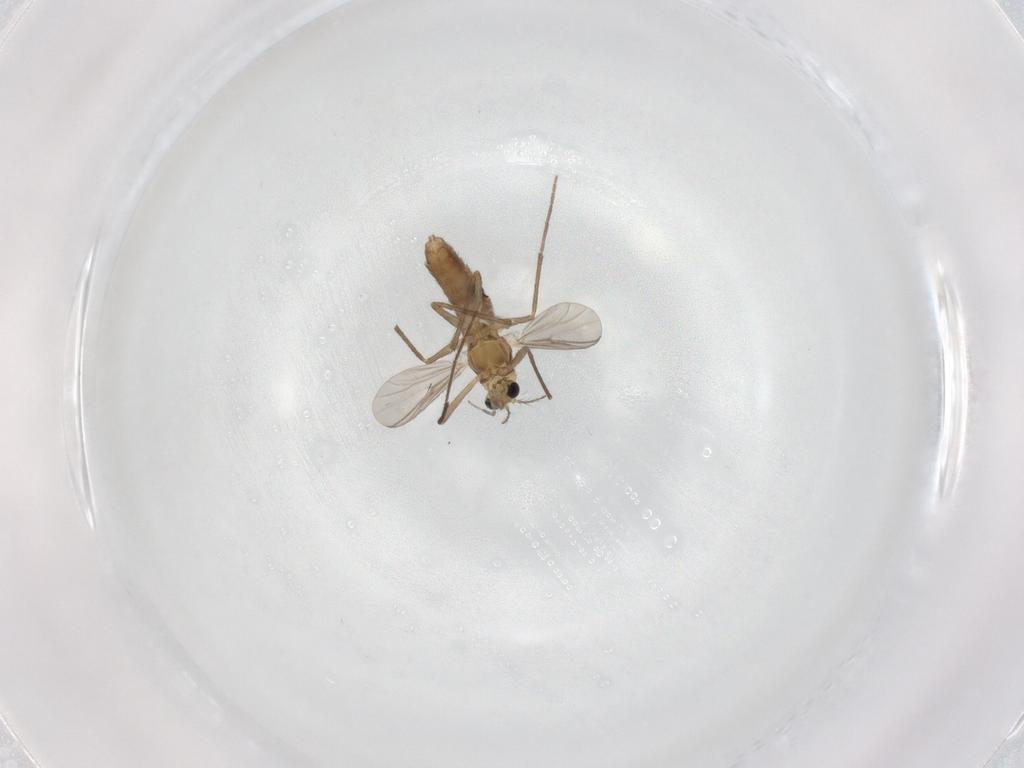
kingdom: Animalia
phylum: Arthropoda
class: Insecta
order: Diptera
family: Chironomidae
